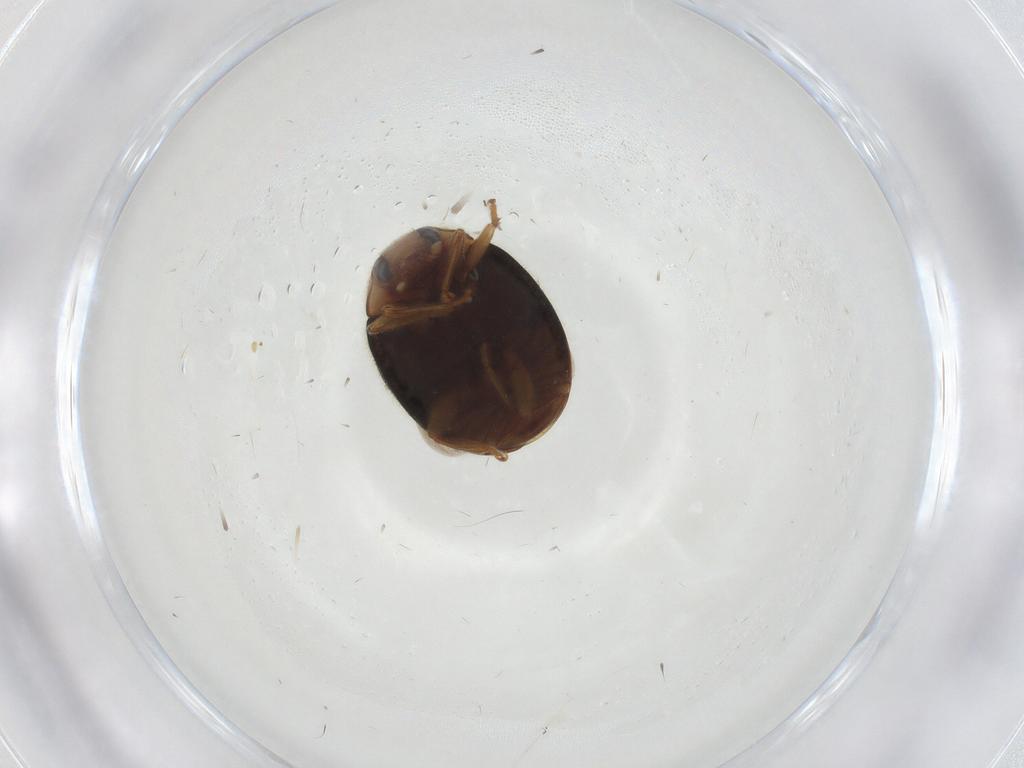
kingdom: Animalia
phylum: Arthropoda
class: Insecta
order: Coleoptera
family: Coccinellidae
